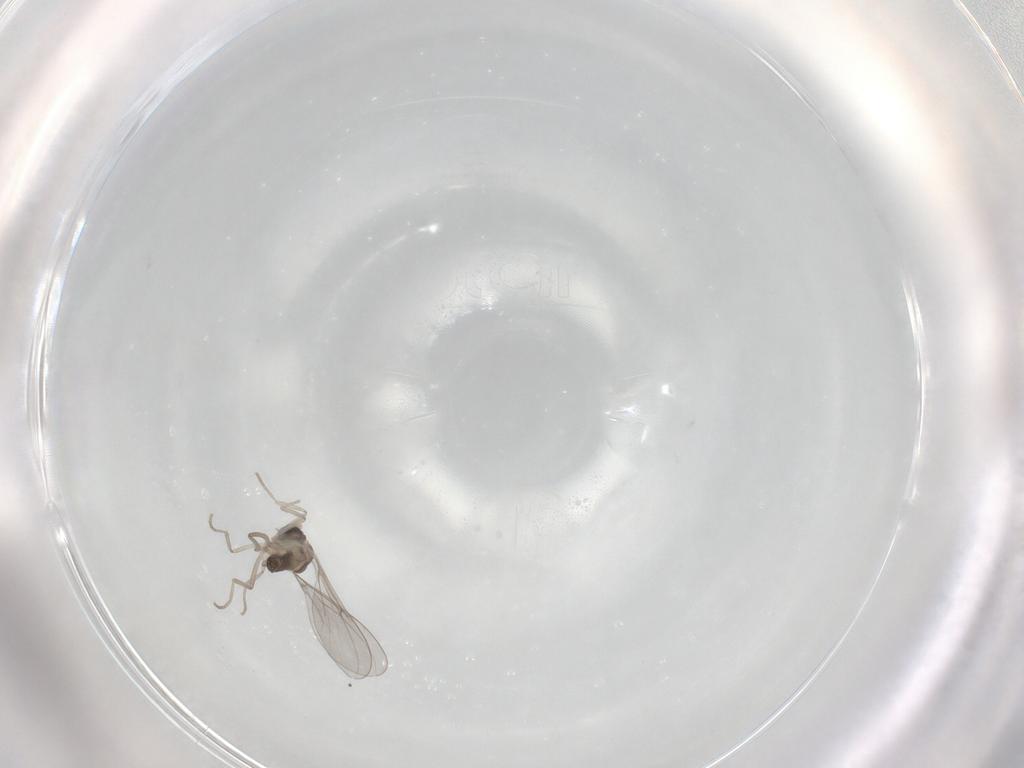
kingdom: Animalia
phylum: Arthropoda
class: Insecta
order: Diptera
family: Cecidomyiidae
